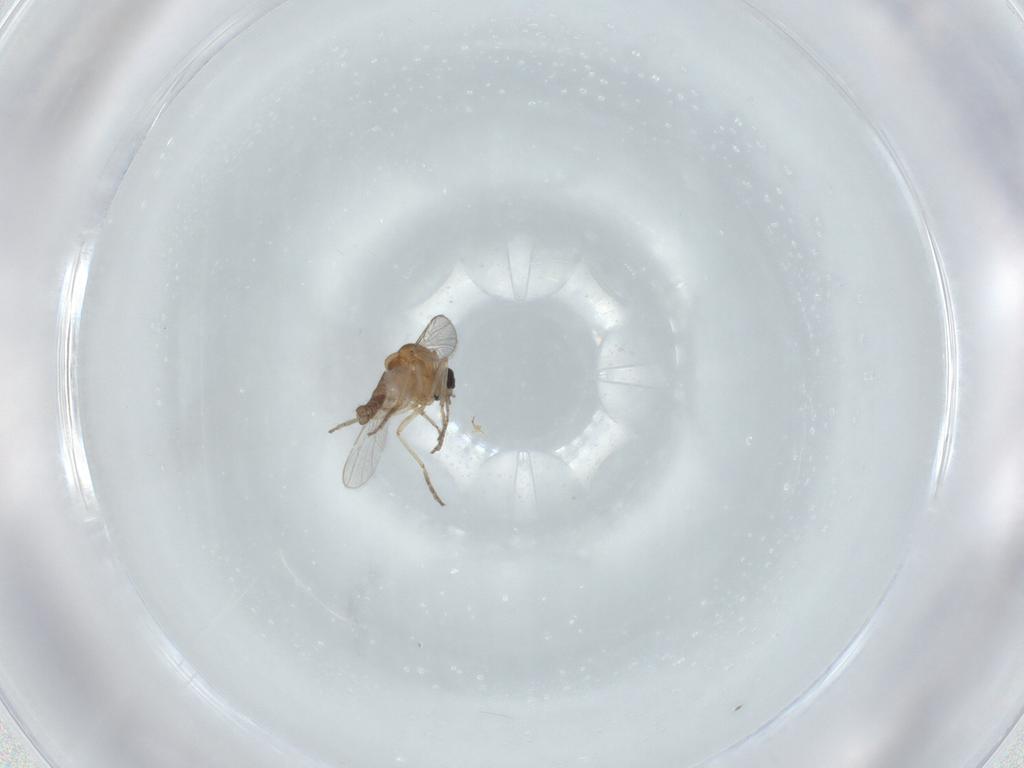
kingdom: Animalia
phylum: Arthropoda
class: Insecta
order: Diptera
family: Ceratopogonidae
